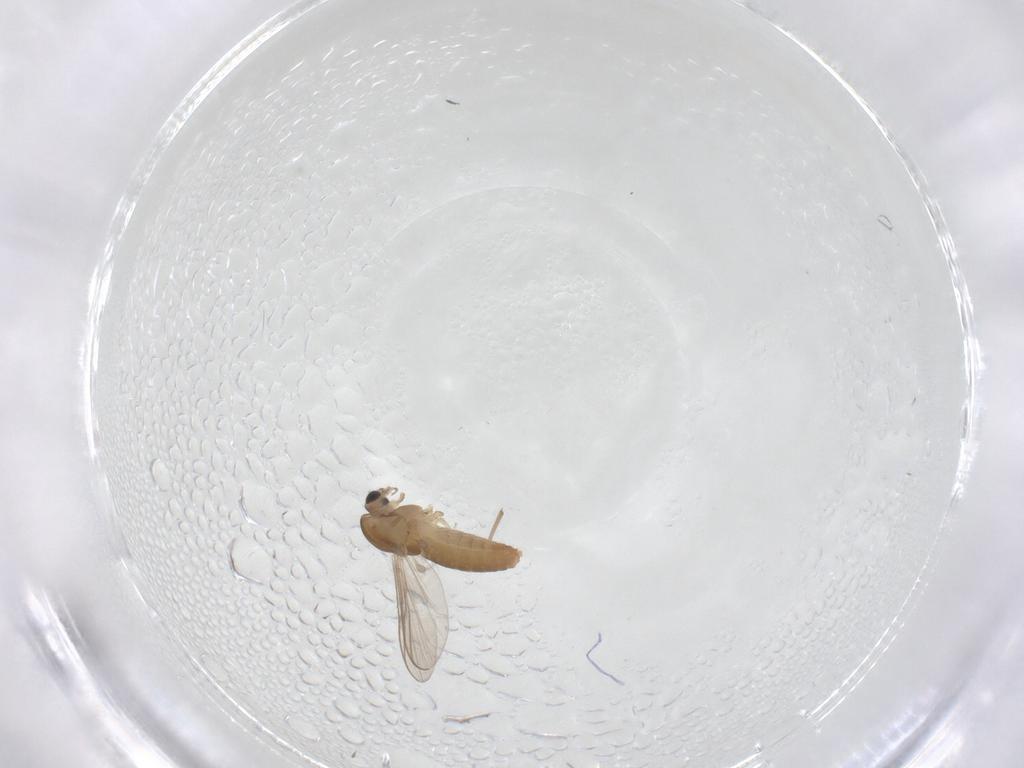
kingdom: Animalia
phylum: Arthropoda
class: Insecta
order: Diptera
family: Chironomidae
